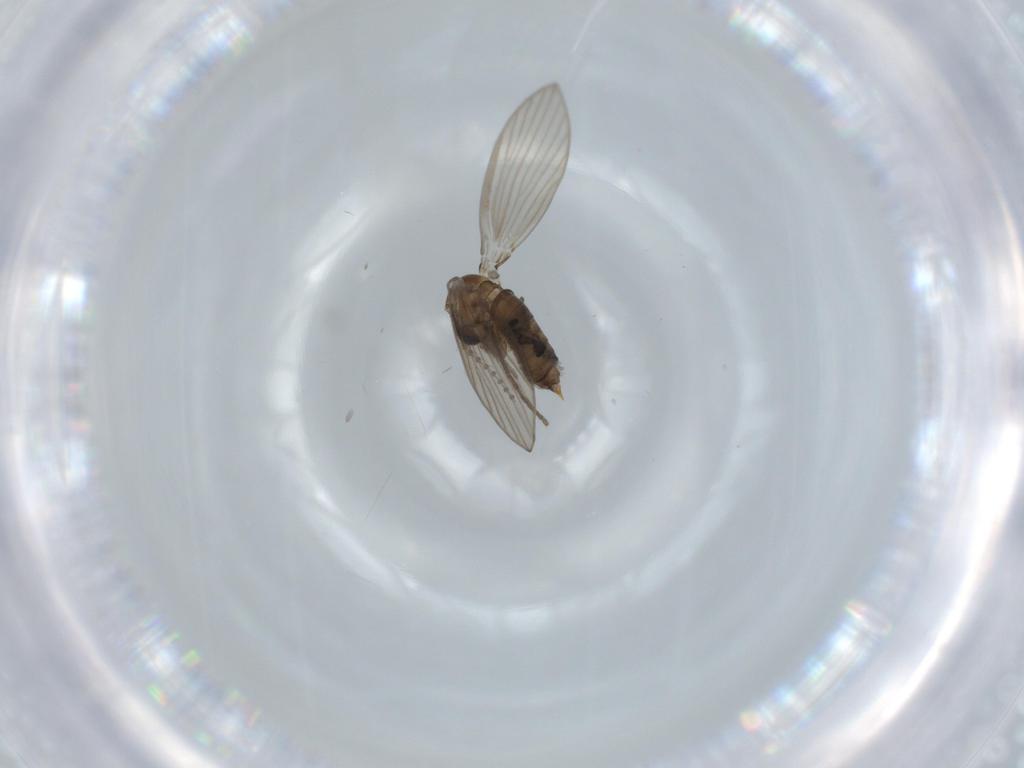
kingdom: Animalia
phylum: Arthropoda
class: Insecta
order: Diptera
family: Psychodidae
